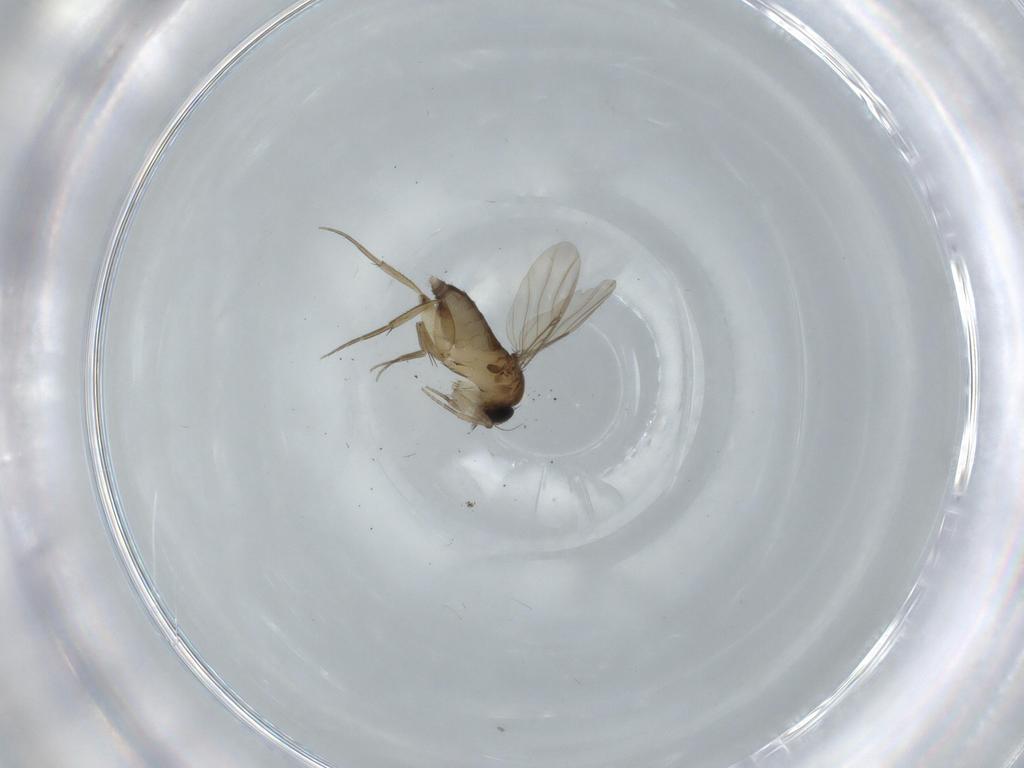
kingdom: Animalia
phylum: Arthropoda
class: Insecta
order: Diptera
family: Phoridae
